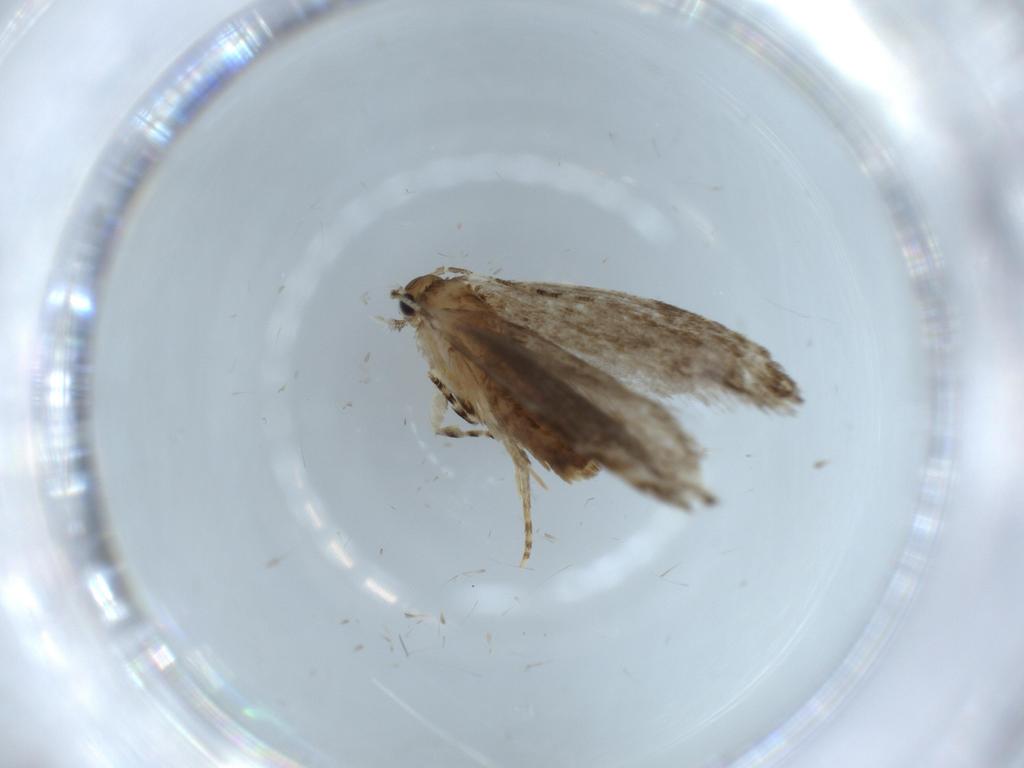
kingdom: Animalia
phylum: Arthropoda
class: Insecta
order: Lepidoptera
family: Tineidae
